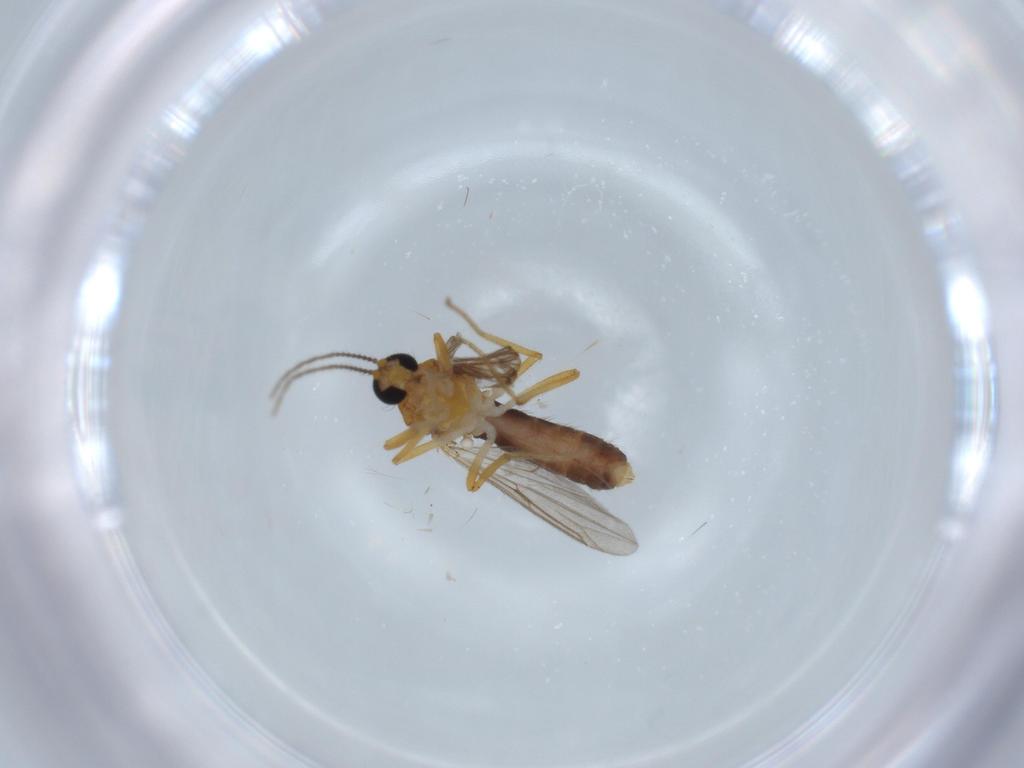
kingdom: Animalia
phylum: Arthropoda
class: Insecta
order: Diptera
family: Ceratopogonidae
